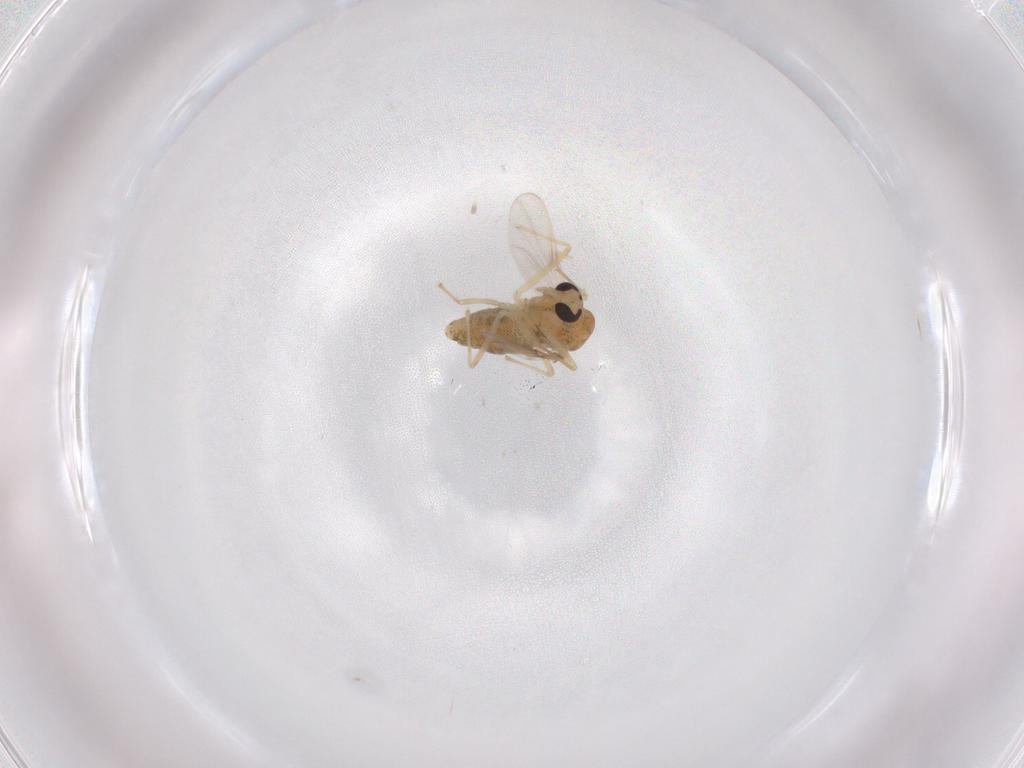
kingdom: Animalia
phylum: Arthropoda
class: Insecta
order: Diptera
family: Chironomidae
